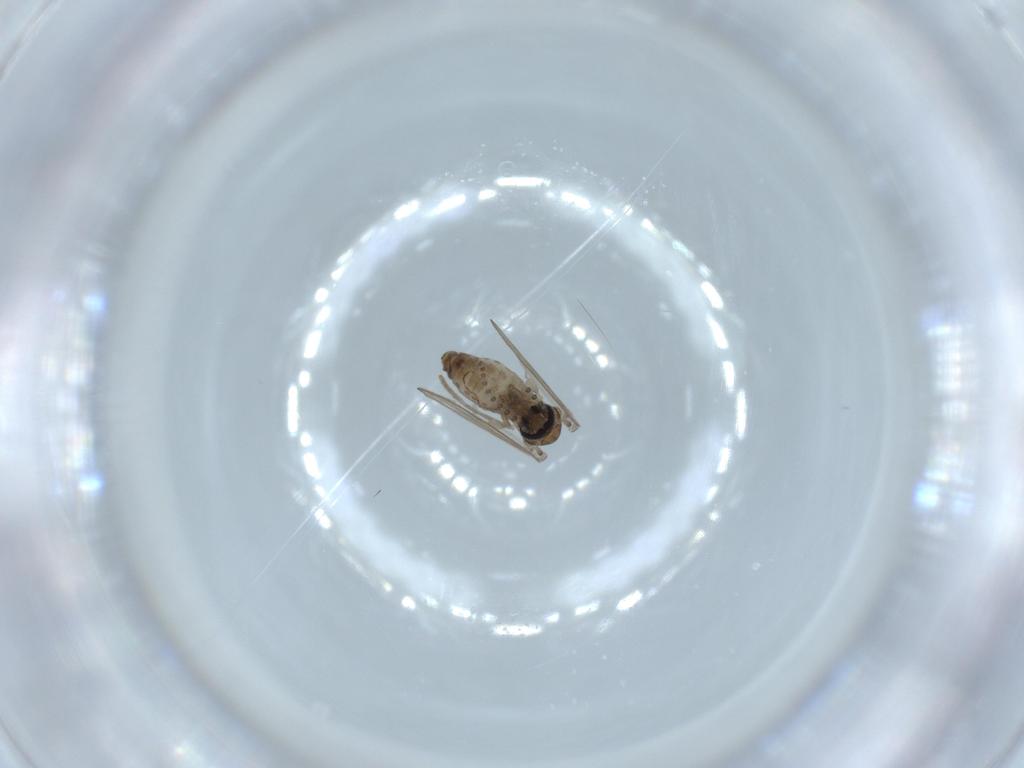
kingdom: Animalia
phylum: Arthropoda
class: Insecta
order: Diptera
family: Psychodidae
